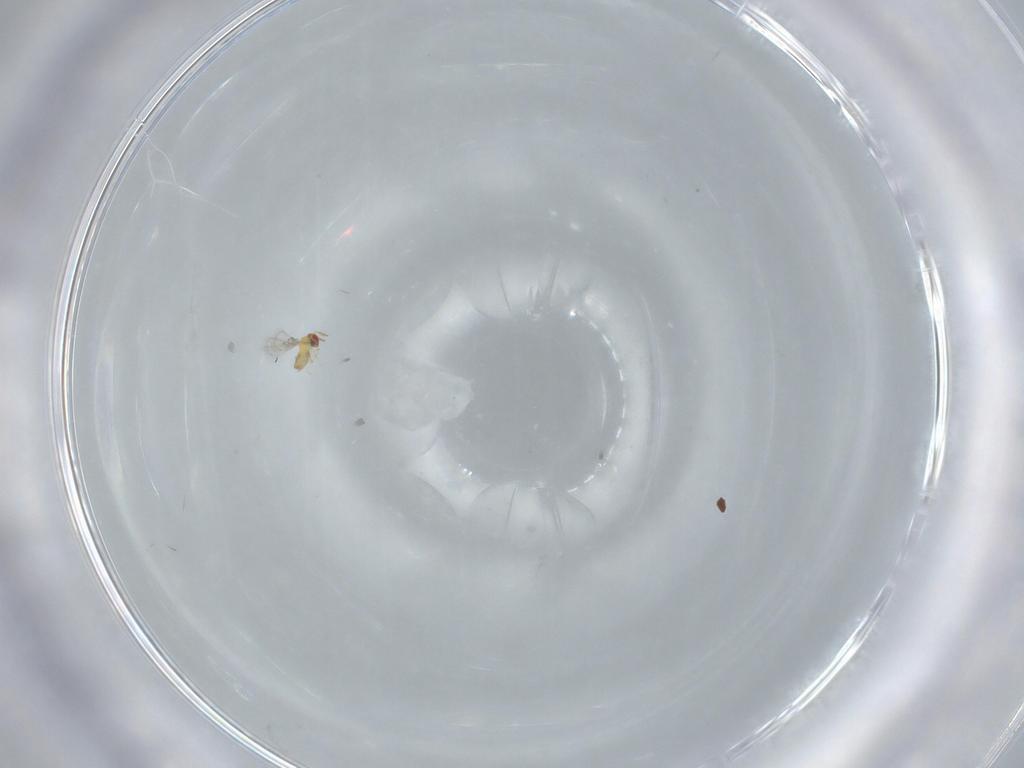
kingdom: Animalia
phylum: Arthropoda
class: Insecta
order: Hymenoptera
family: Trichogrammatidae
